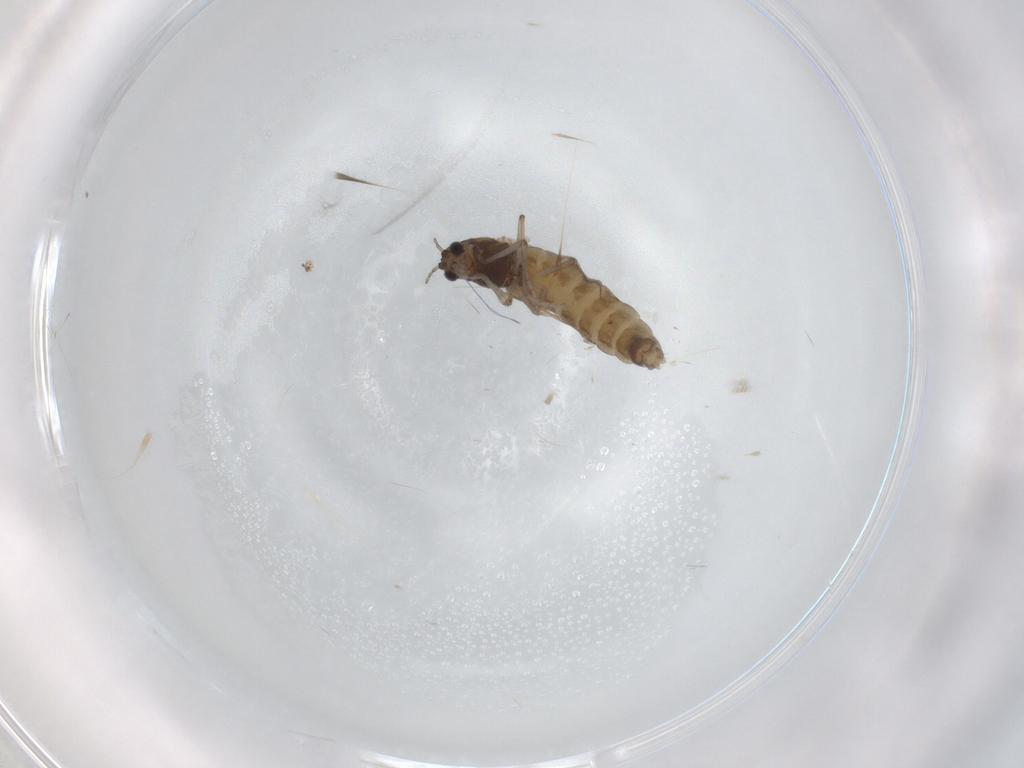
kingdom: Animalia
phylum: Arthropoda
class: Insecta
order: Diptera
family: Chironomidae
